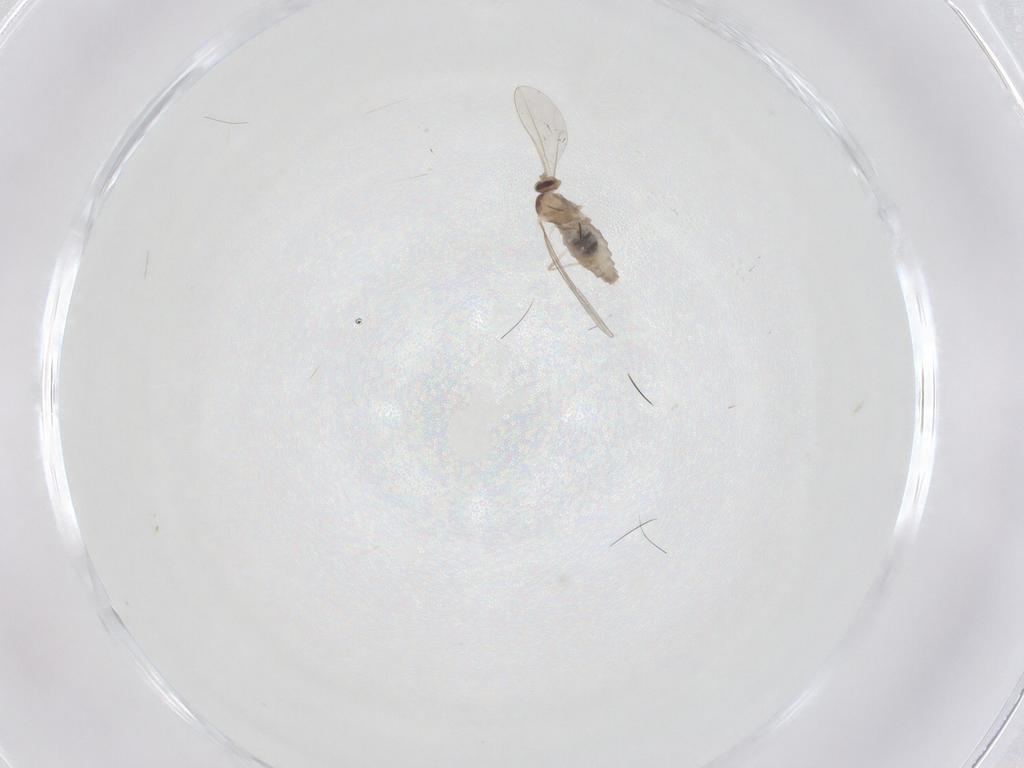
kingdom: Animalia
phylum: Arthropoda
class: Insecta
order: Diptera
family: Cecidomyiidae
